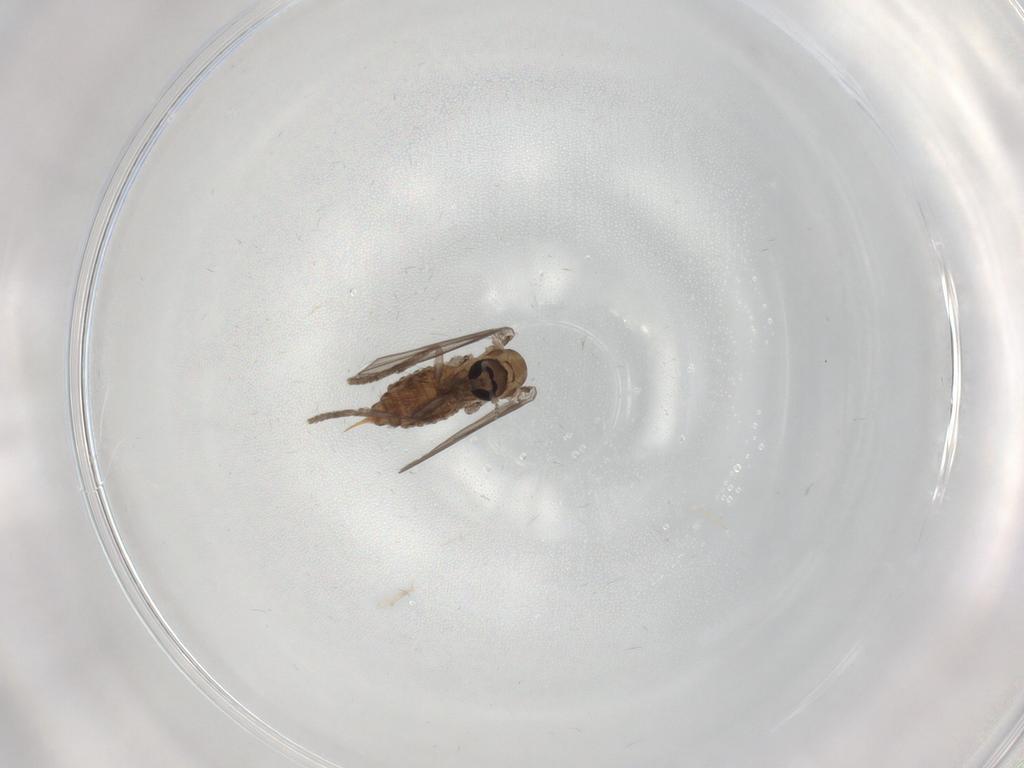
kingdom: Animalia
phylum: Arthropoda
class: Insecta
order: Diptera
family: Psychodidae
